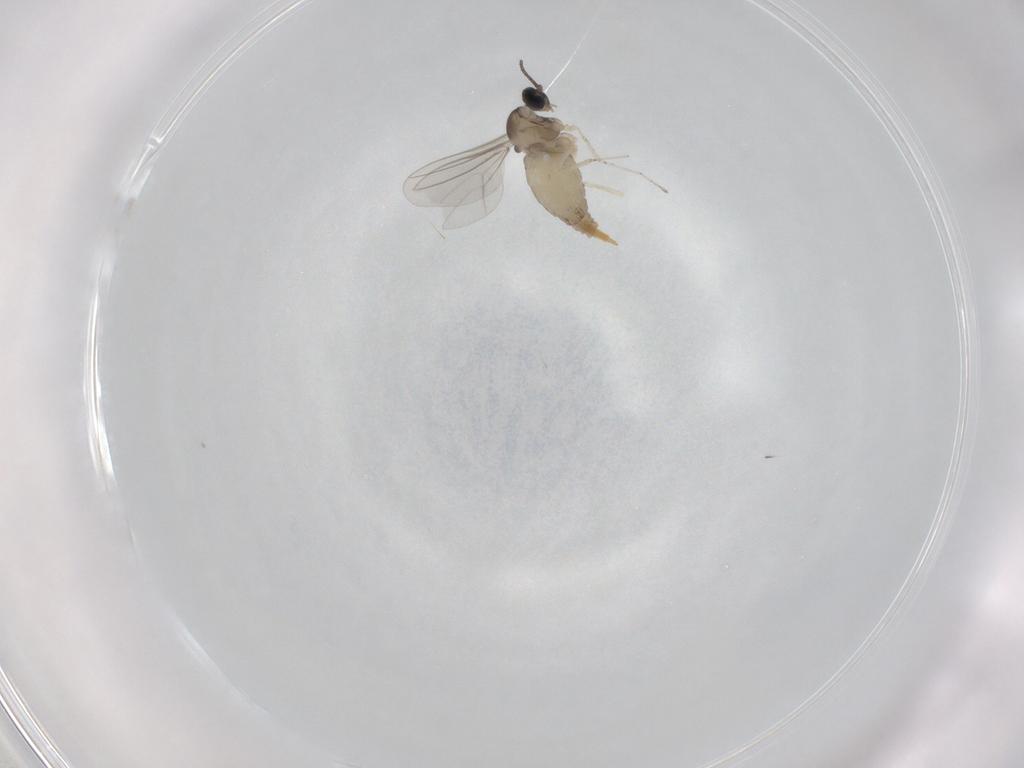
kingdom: Animalia
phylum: Arthropoda
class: Insecta
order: Diptera
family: Cecidomyiidae
